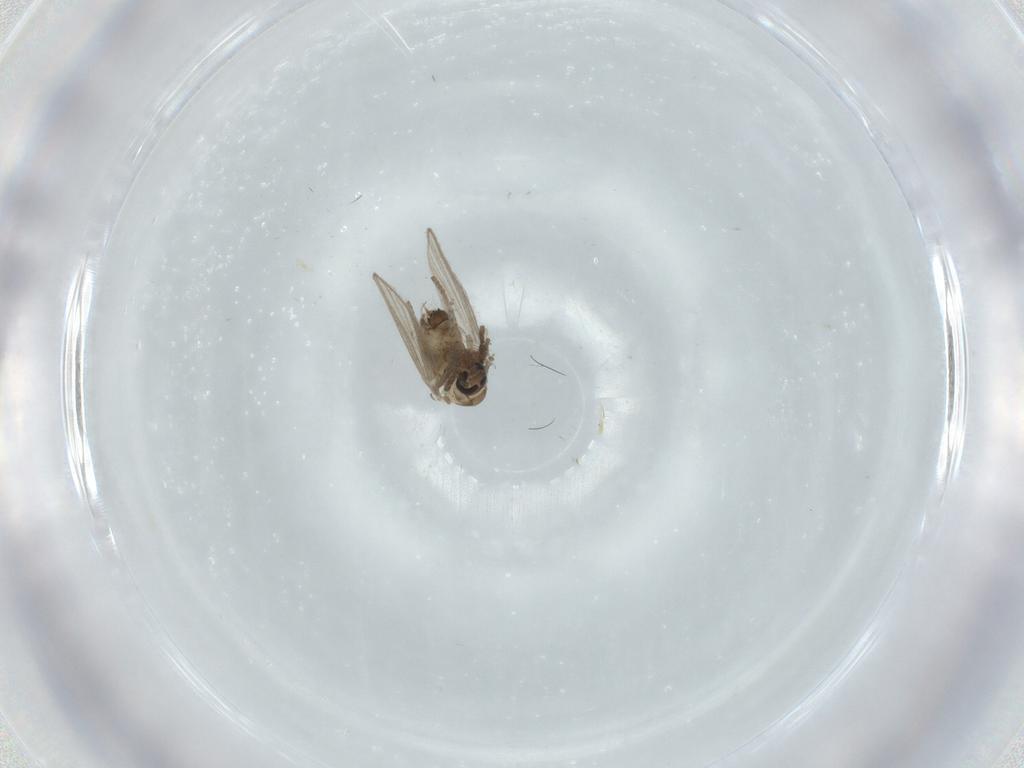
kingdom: Animalia
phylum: Arthropoda
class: Insecta
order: Diptera
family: Psychodidae
